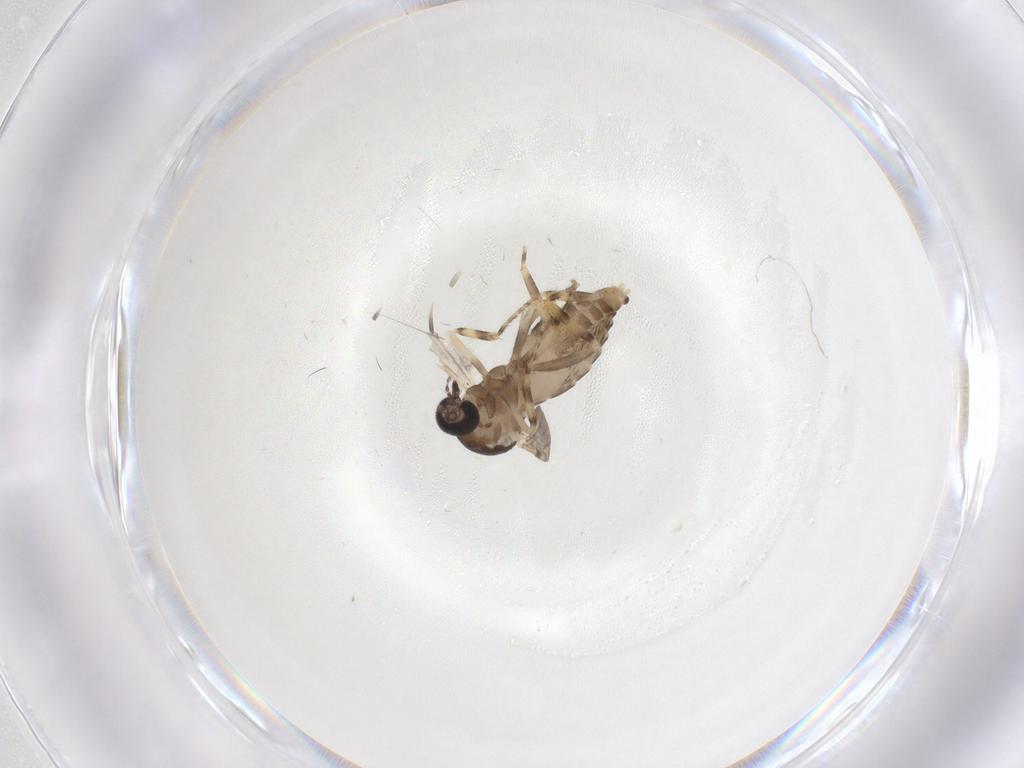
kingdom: Animalia
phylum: Arthropoda
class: Insecta
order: Diptera
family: Ceratopogonidae
